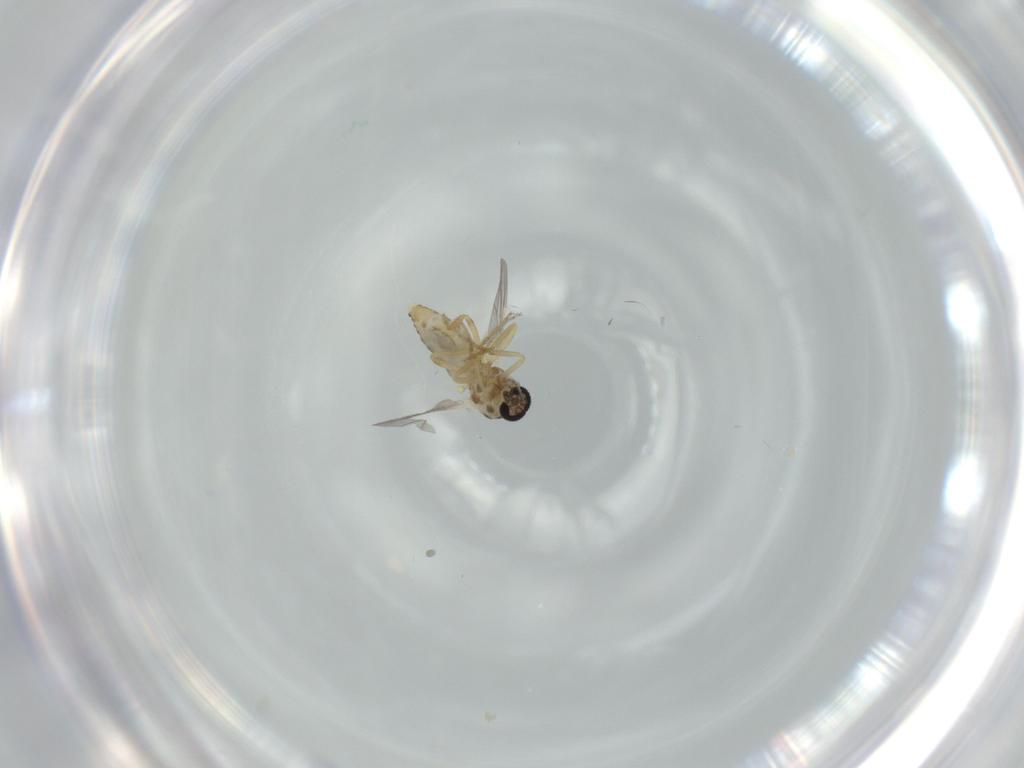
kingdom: Animalia
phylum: Arthropoda
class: Insecta
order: Diptera
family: Ceratopogonidae
